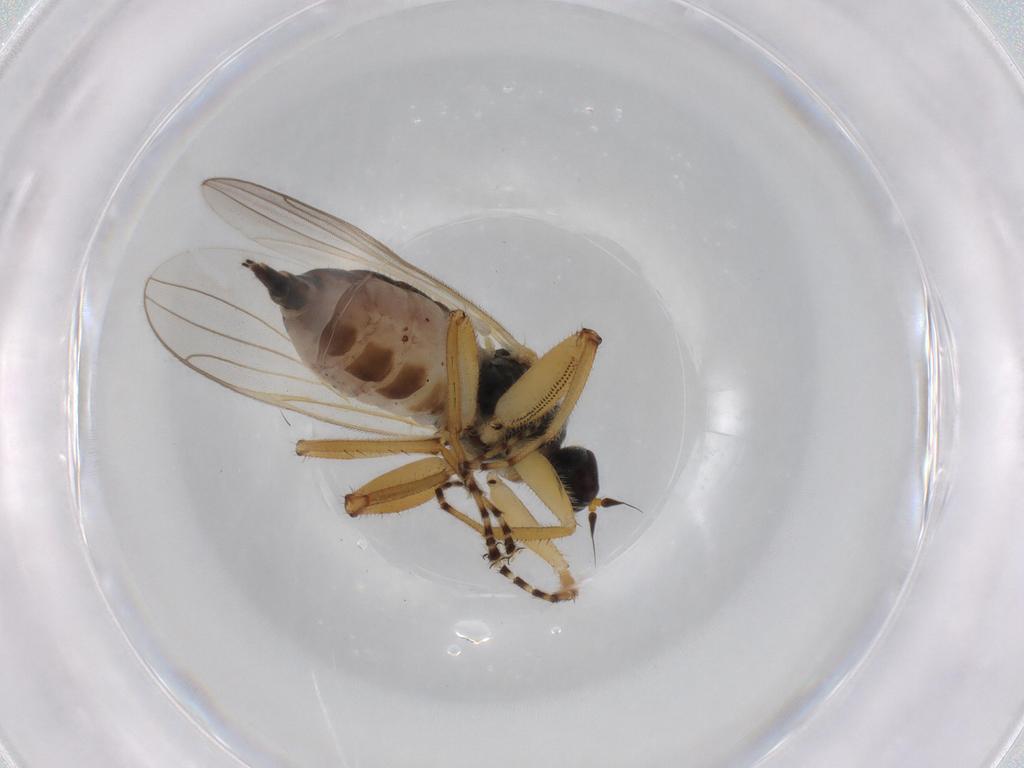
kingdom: Animalia
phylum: Arthropoda
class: Insecta
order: Diptera
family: Hybotidae
